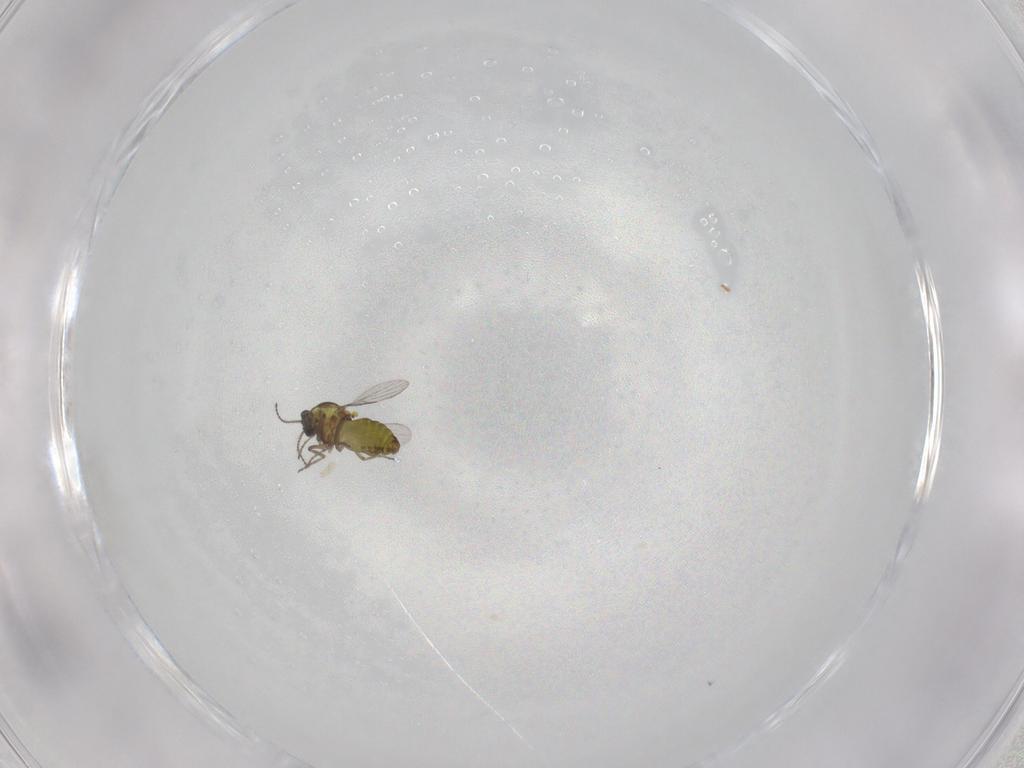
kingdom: Animalia
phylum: Arthropoda
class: Insecta
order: Diptera
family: Ceratopogonidae
